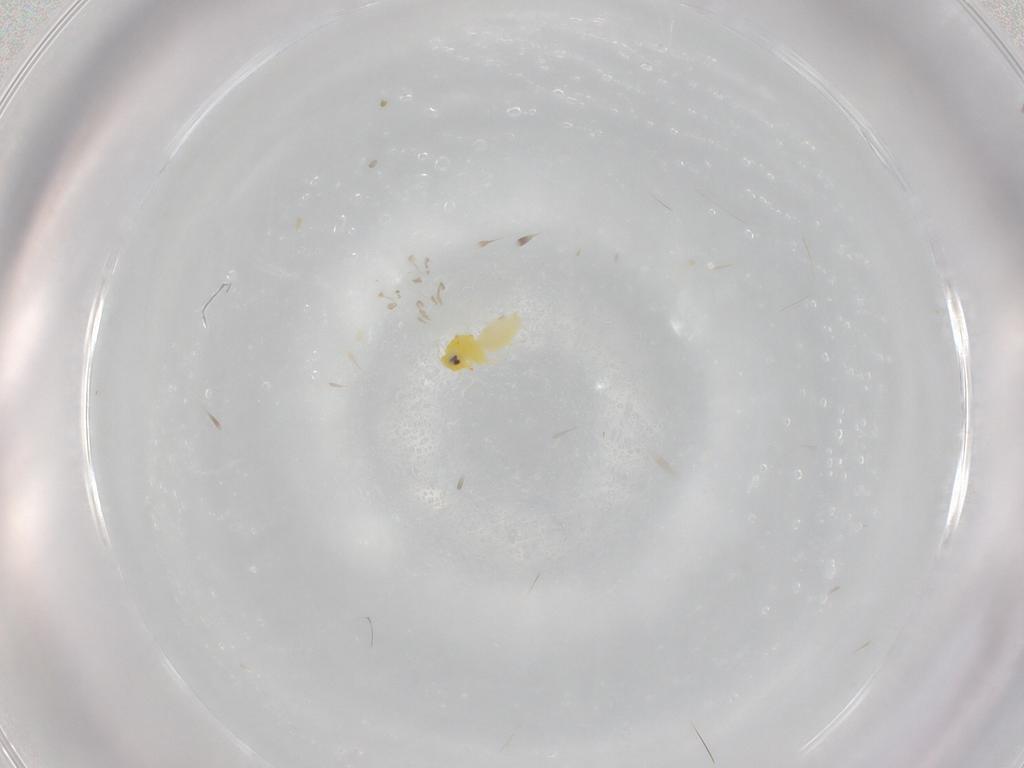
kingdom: Animalia
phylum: Arthropoda
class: Insecta
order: Hemiptera
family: Aleyrodidae
